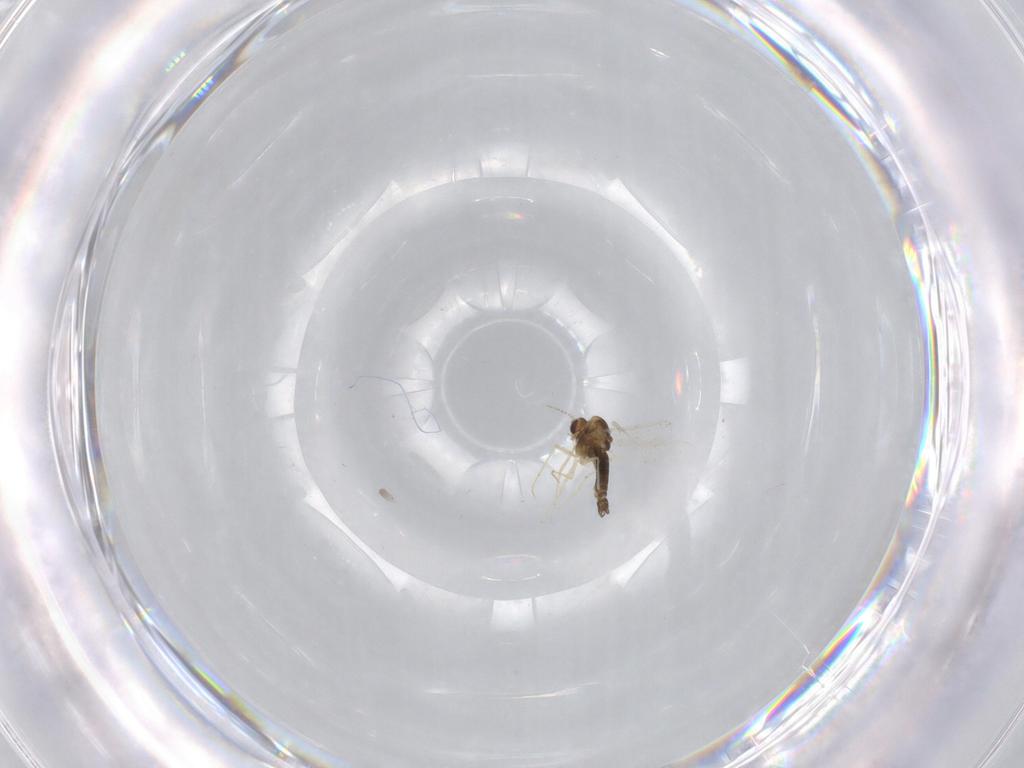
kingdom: Animalia
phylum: Arthropoda
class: Insecta
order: Diptera
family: Chironomidae
